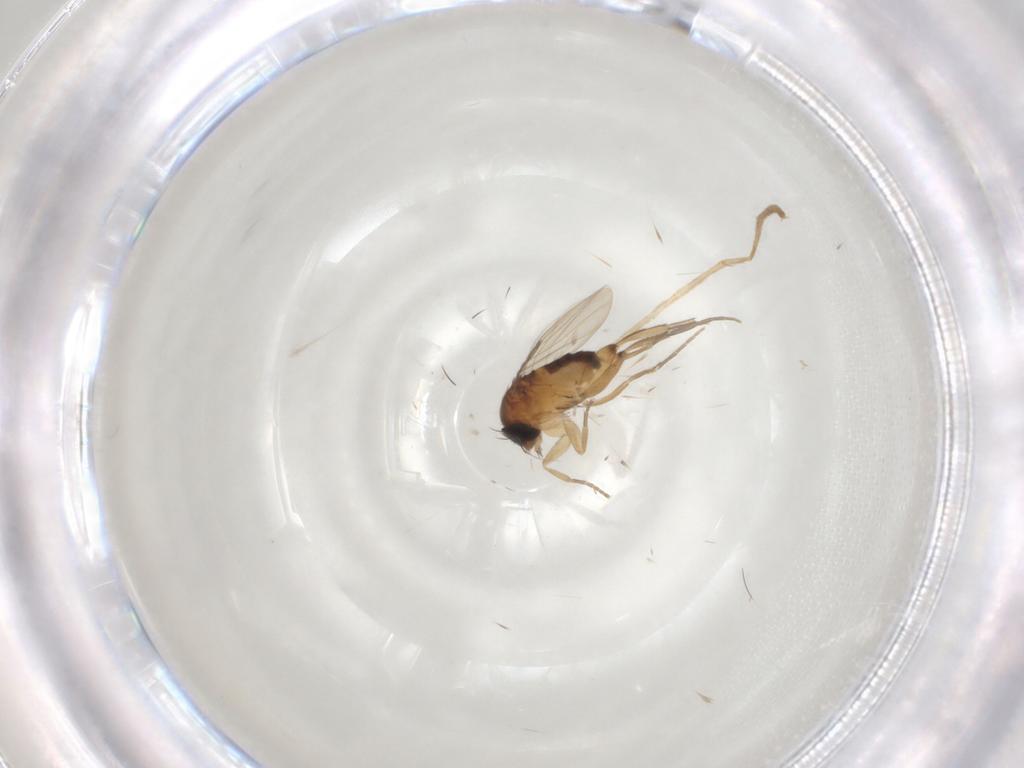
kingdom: Animalia
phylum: Arthropoda
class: Insecta
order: Diptera
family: Cecidomyiidae
